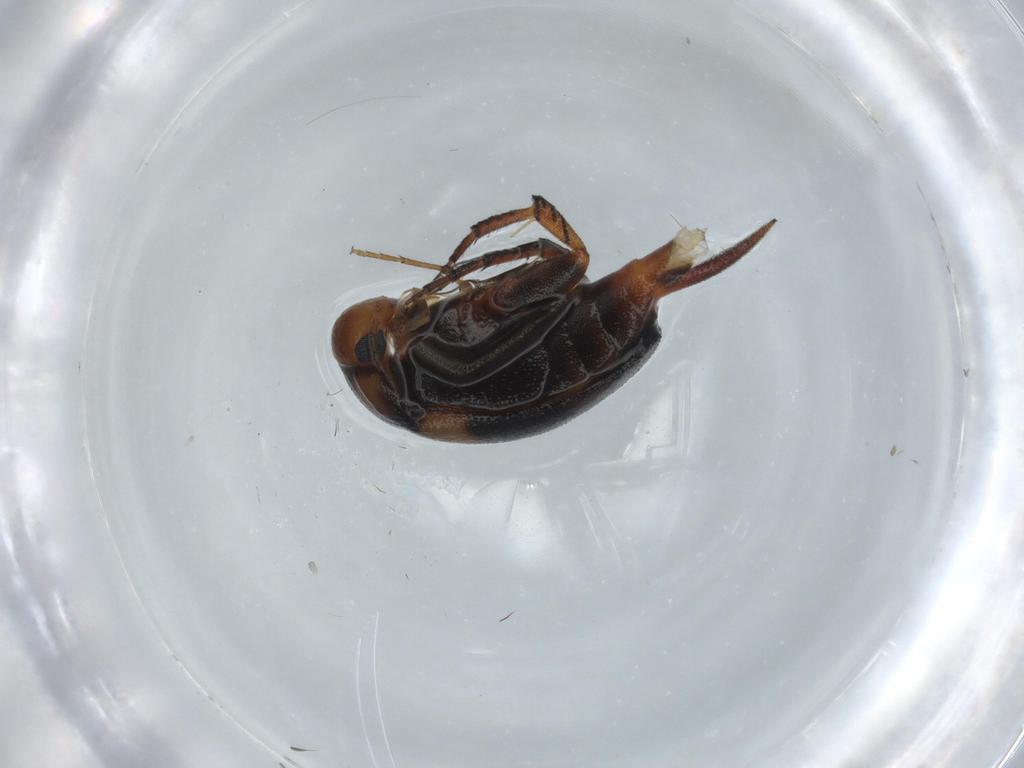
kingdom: Animalia
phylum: Arthropoda
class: Insecta
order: Coleoptera
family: Mordellidae
